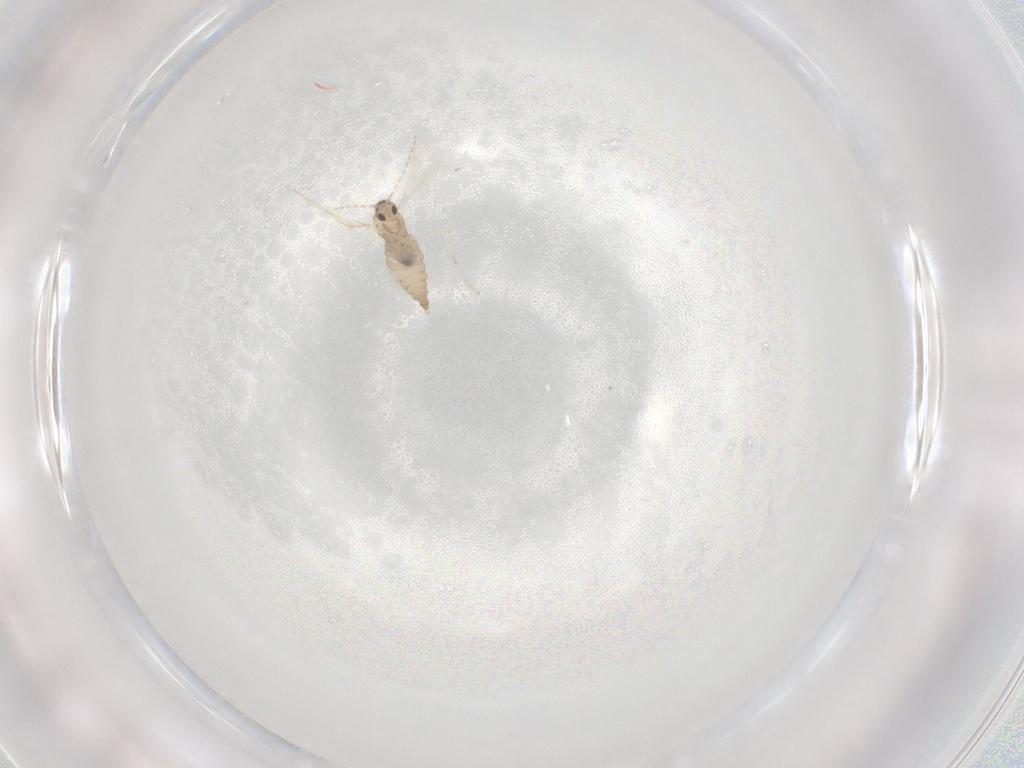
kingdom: Animalia
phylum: Arthropoda
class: Insecta
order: Diptera
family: Cecidomyiidae
